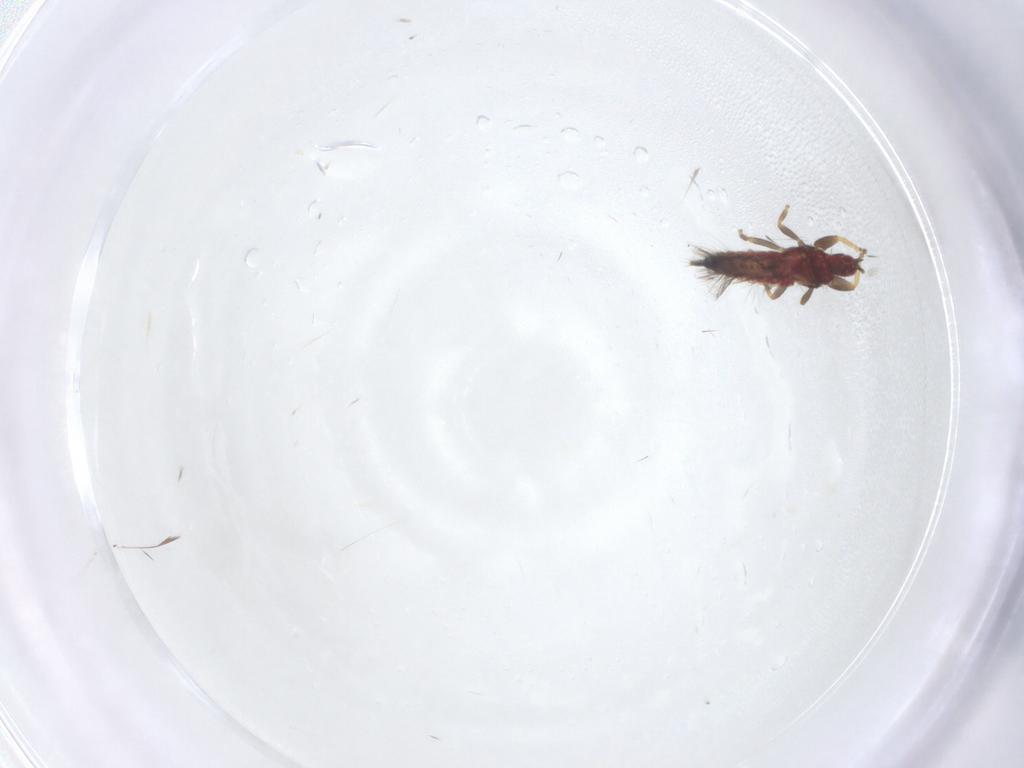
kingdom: Animalia
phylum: Arthropoda
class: Insecta
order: Thysanoptera
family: Phlaeothripidae
